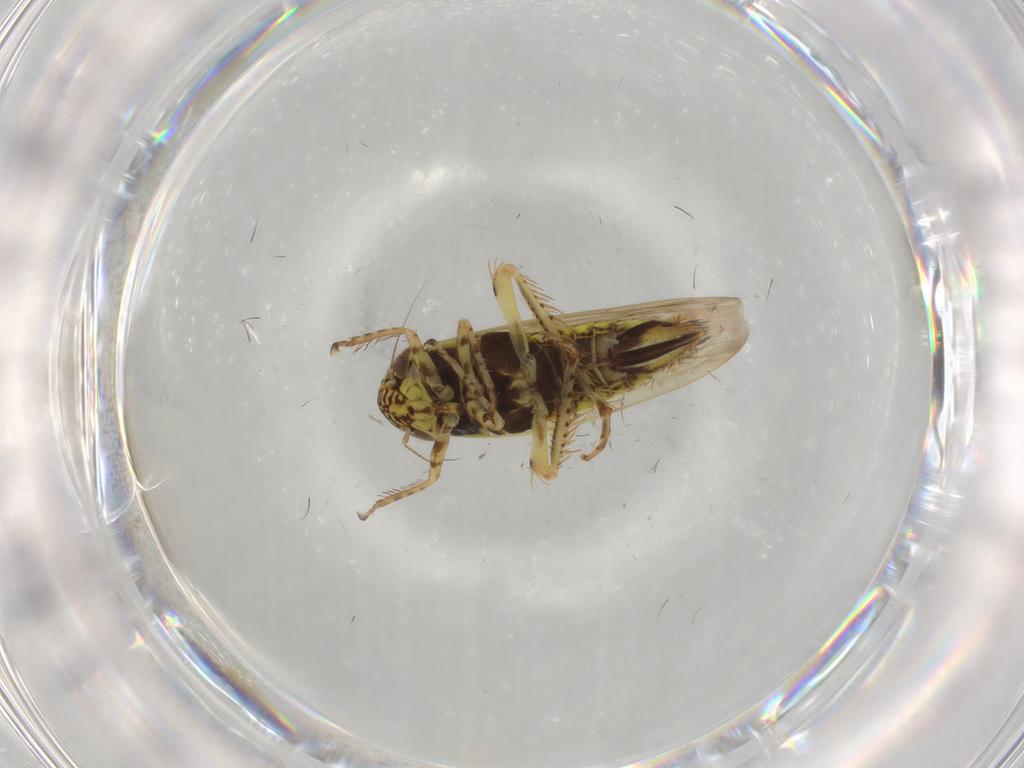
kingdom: Animalia
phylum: Arthropoda
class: Insecta
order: Hemiptera
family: Cicadellidae
